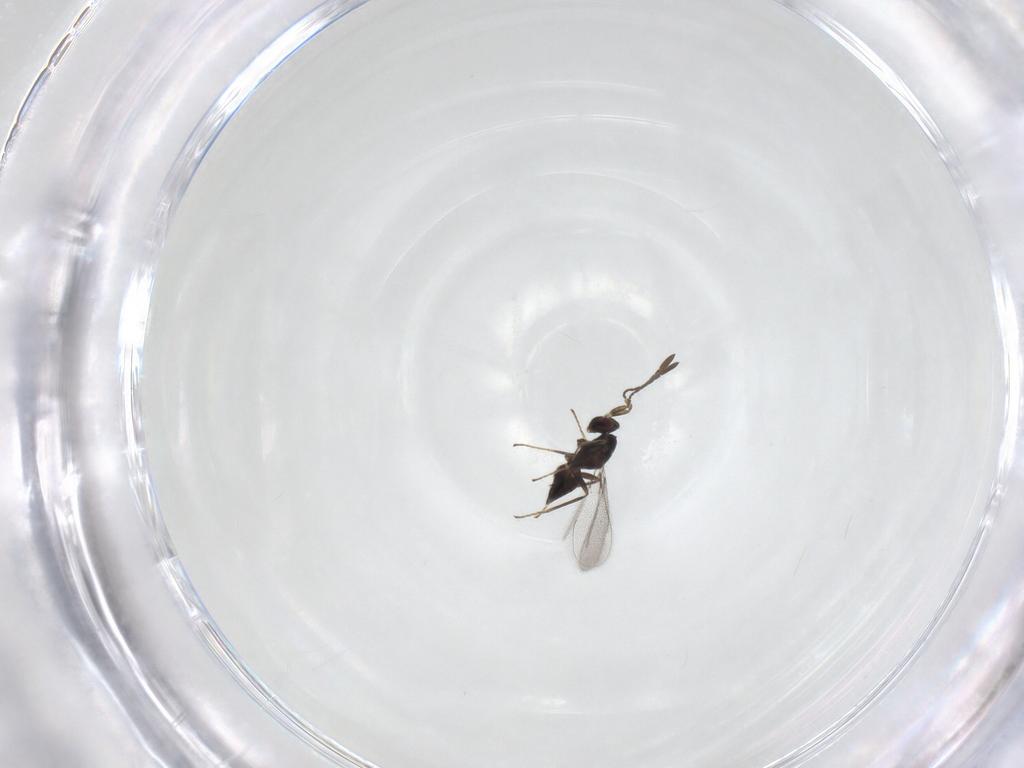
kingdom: Animalia
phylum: Arthropoda
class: Insecta
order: Hymenoptera
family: Mymaridae
